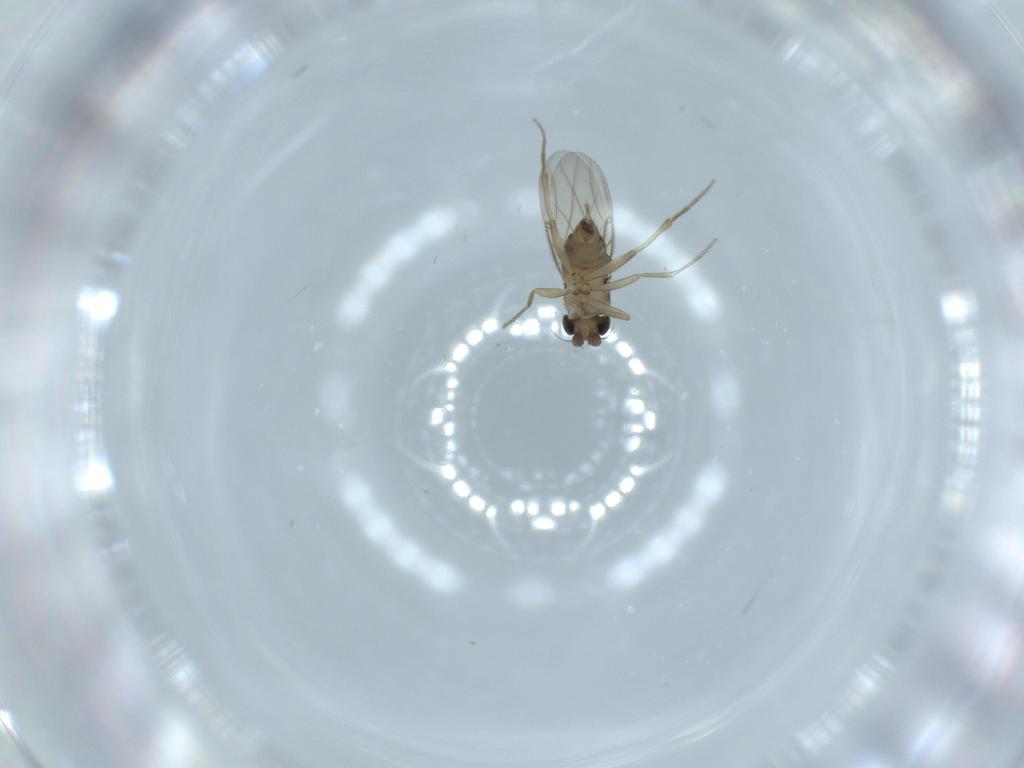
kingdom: Animalia
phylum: Arthropoda
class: Insecta
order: Diptera
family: Phoridae
